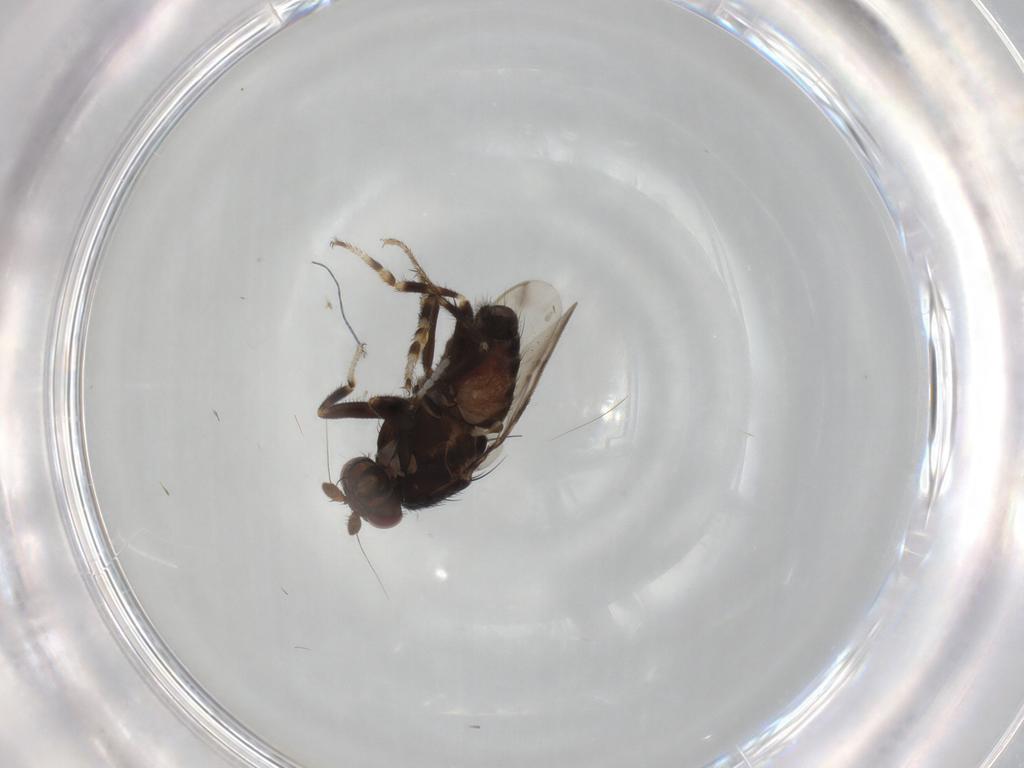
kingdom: Animalia
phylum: Arthropoda
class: Insecta
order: Diptera
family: Sphaeroceridae
